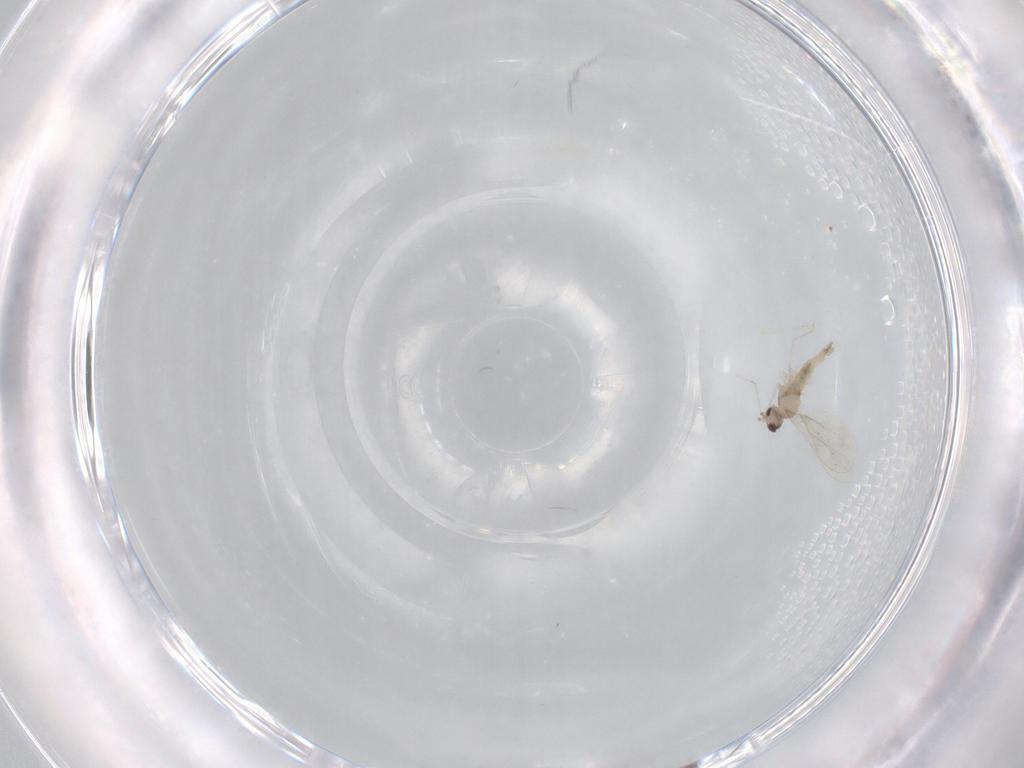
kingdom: Animalia
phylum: Arthropoda
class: Insecta
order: Diptera
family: Cecidomyiidae
